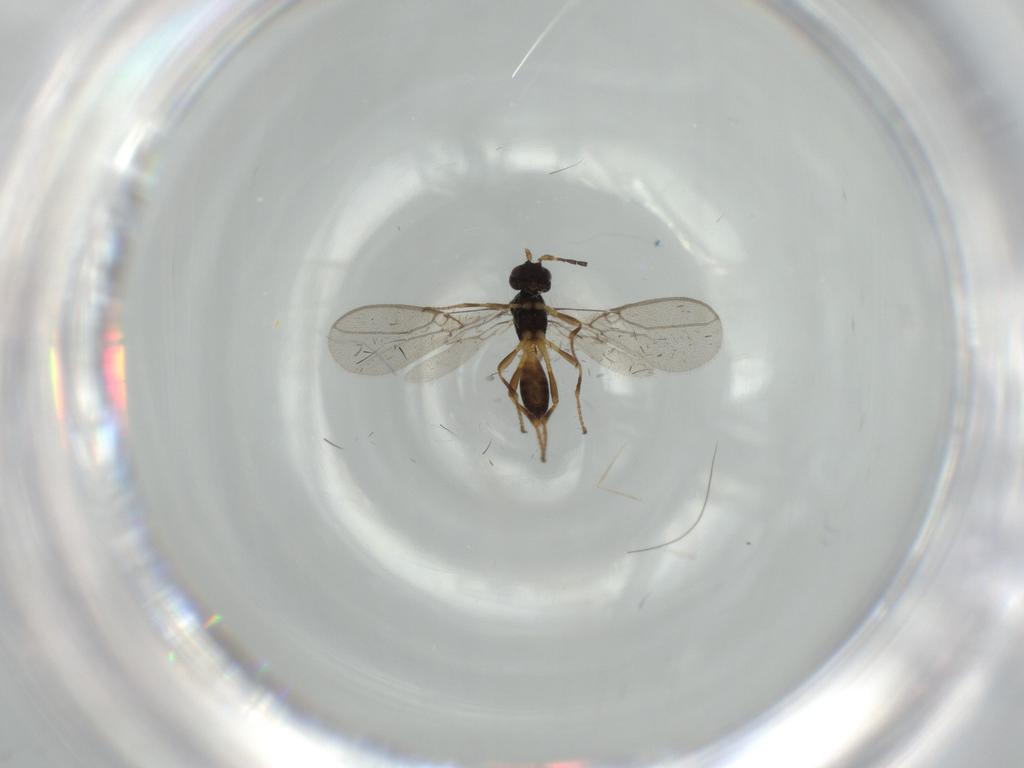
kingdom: Animalia
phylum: Arthropoda
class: Insecta
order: Hymenoptera
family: Braconidae
